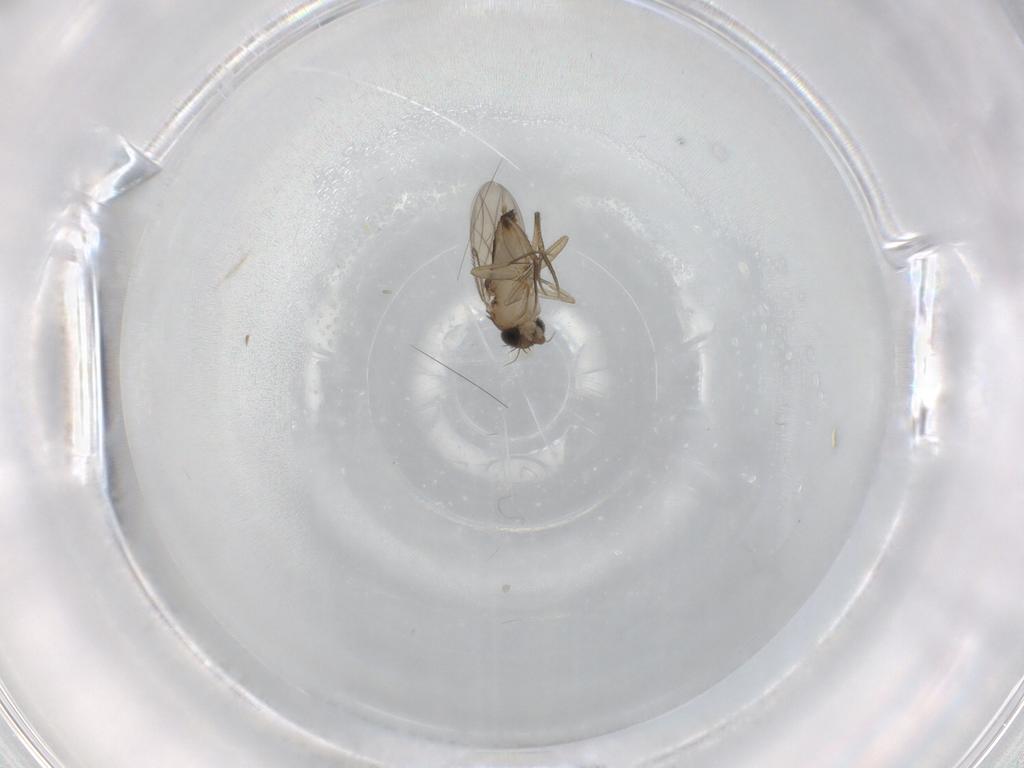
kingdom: Animalia
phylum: Arthropoda
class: Insecta
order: Diptera
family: Phoridae
